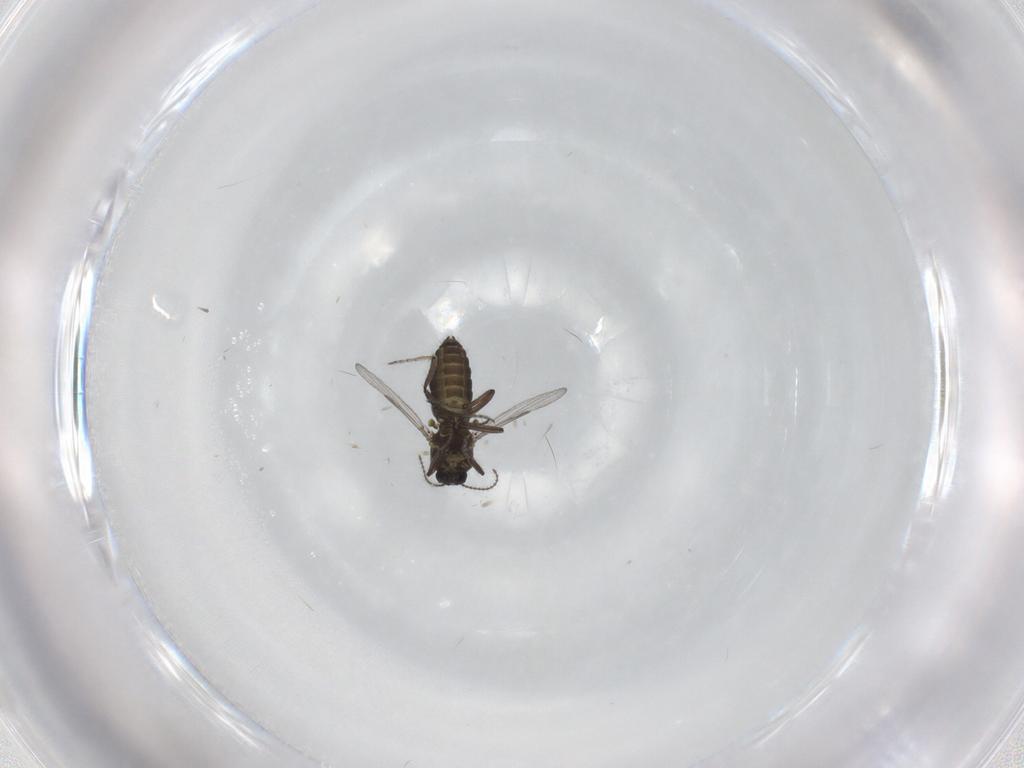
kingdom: Animalia
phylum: Arthropoda
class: Insecta
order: Diptera
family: Ceratopogonidae
